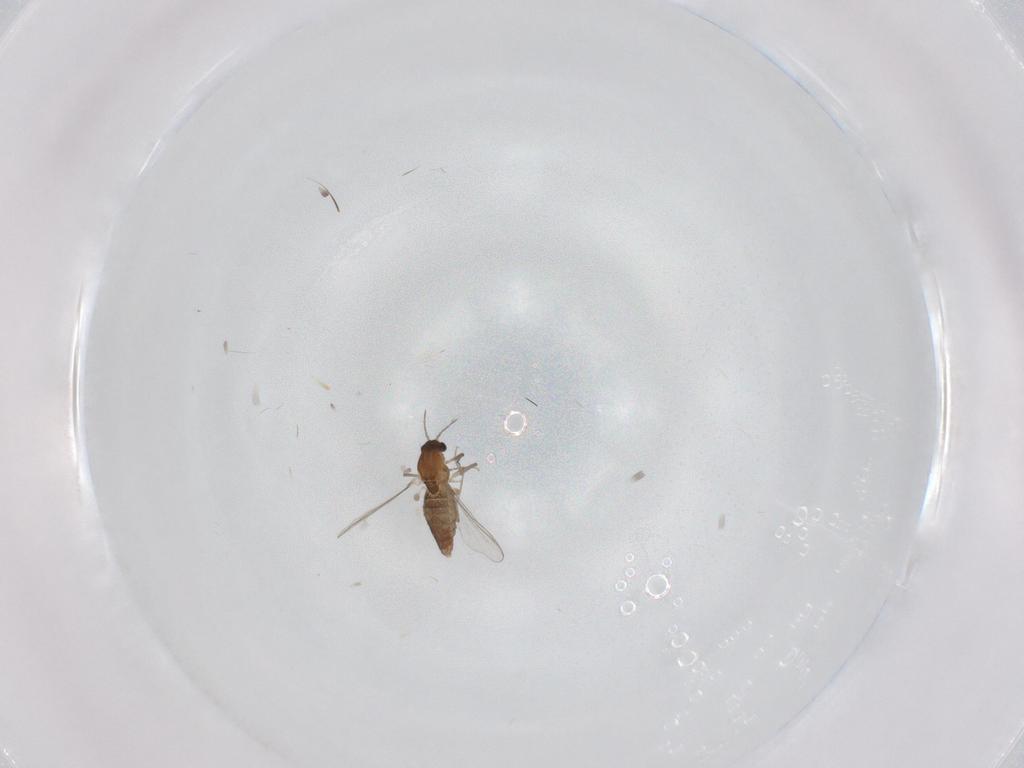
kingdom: Animalia
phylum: Arthropoda
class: Insecta
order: Diptera
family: Chironomidae
